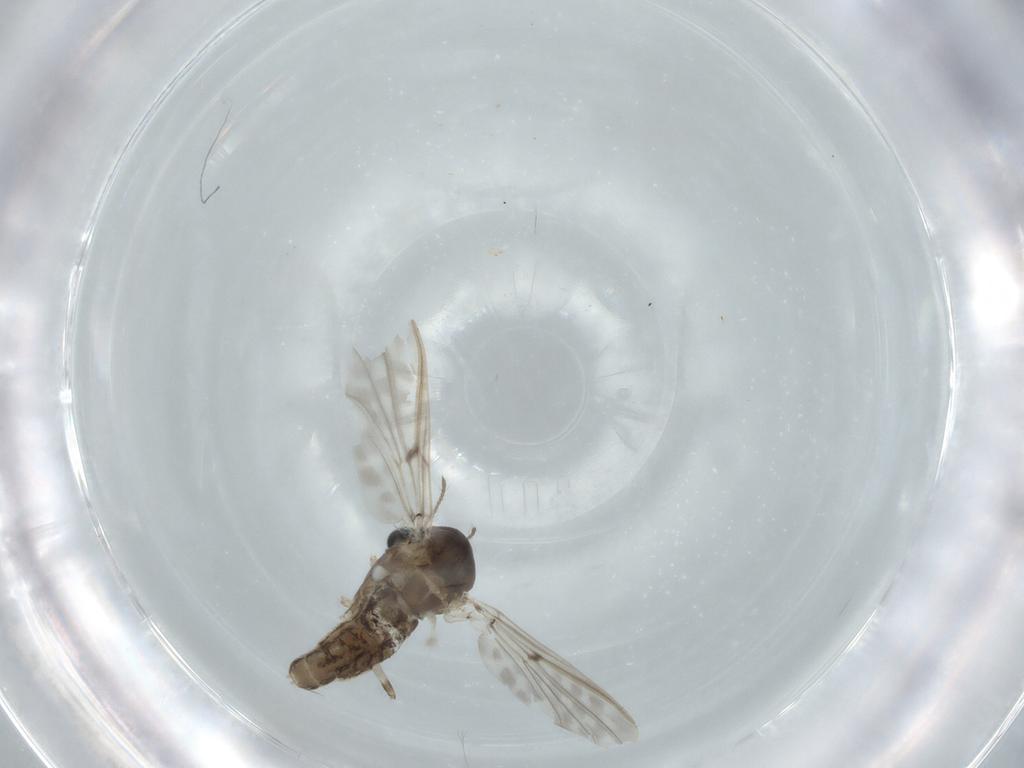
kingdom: Animalia
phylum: Arthropoda
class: Insecta
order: Diptera
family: Chironomidae
